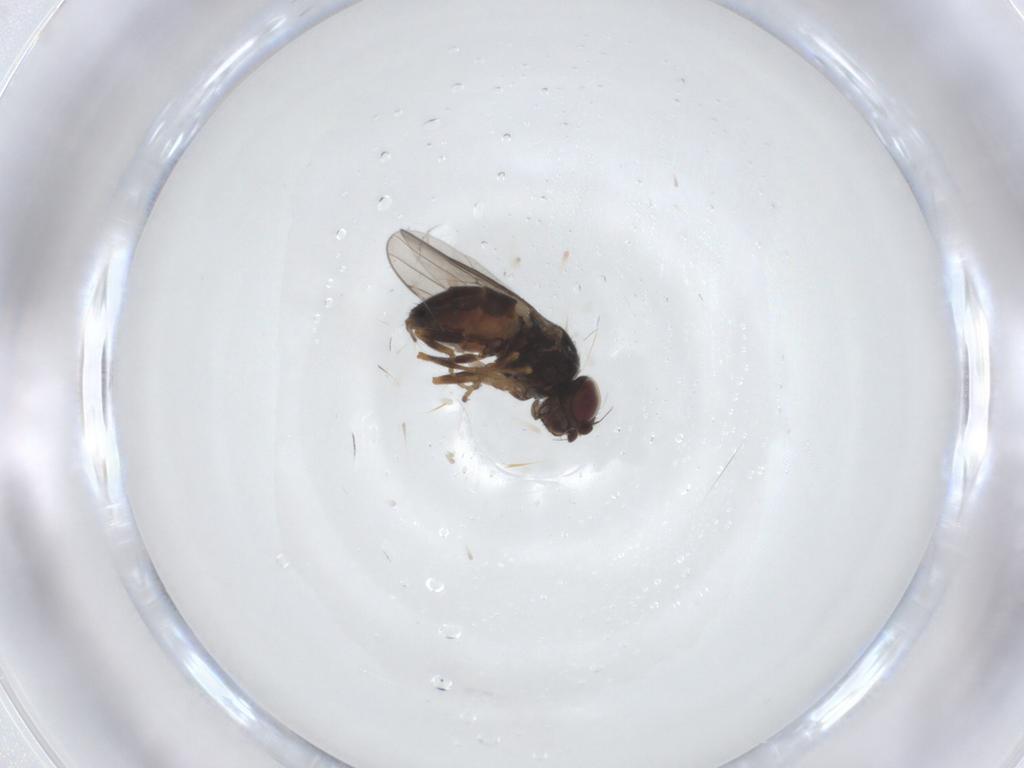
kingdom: Animalia
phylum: Arthropoda
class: Insecta
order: Diptera
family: Chloropidae
